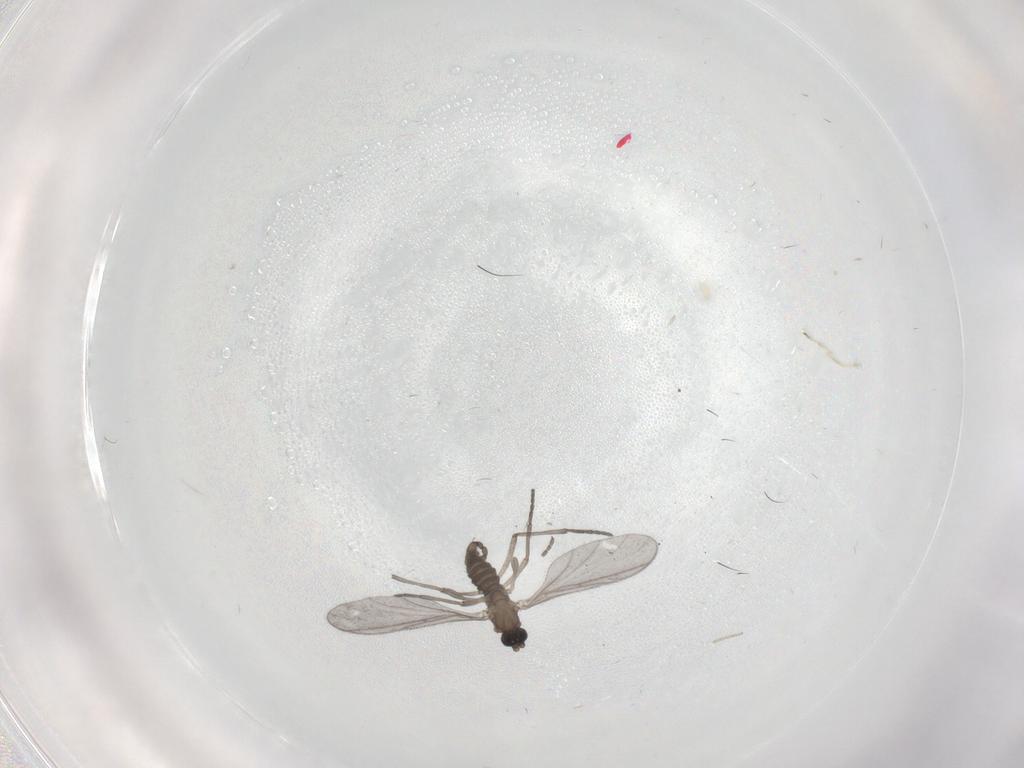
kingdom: Animalia
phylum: Arthropoda
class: Insecta
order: Diptera
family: Sciaridae
